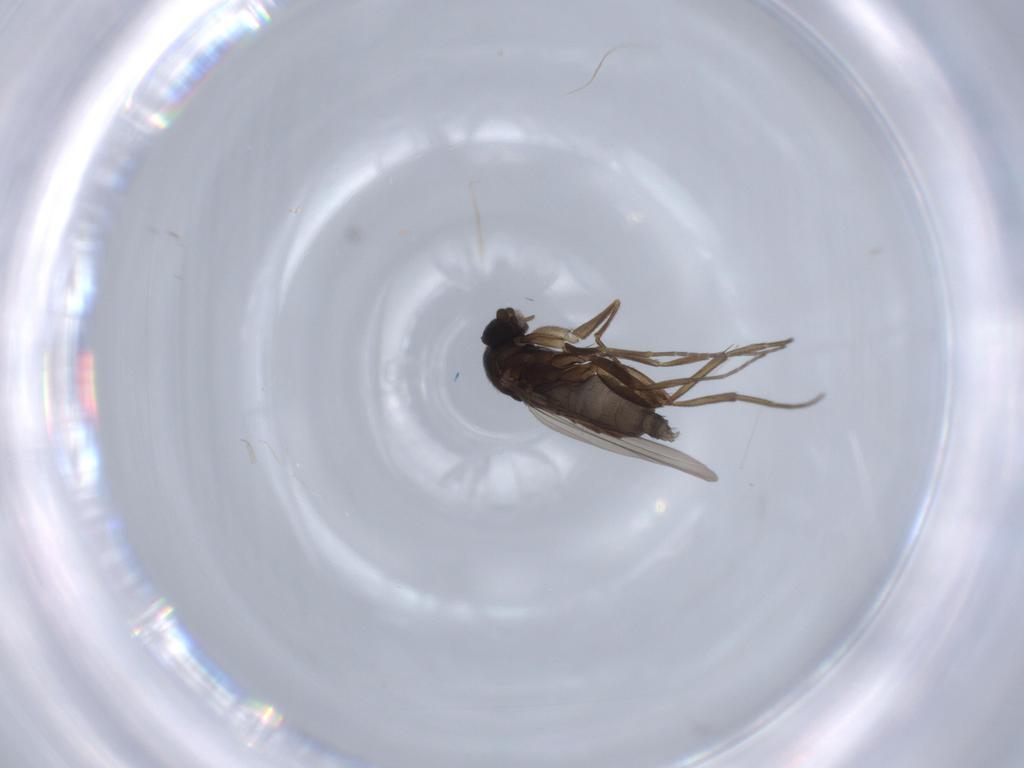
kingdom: Animalia
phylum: Arthropoda
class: Insecta
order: Diptera
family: Phoridae
